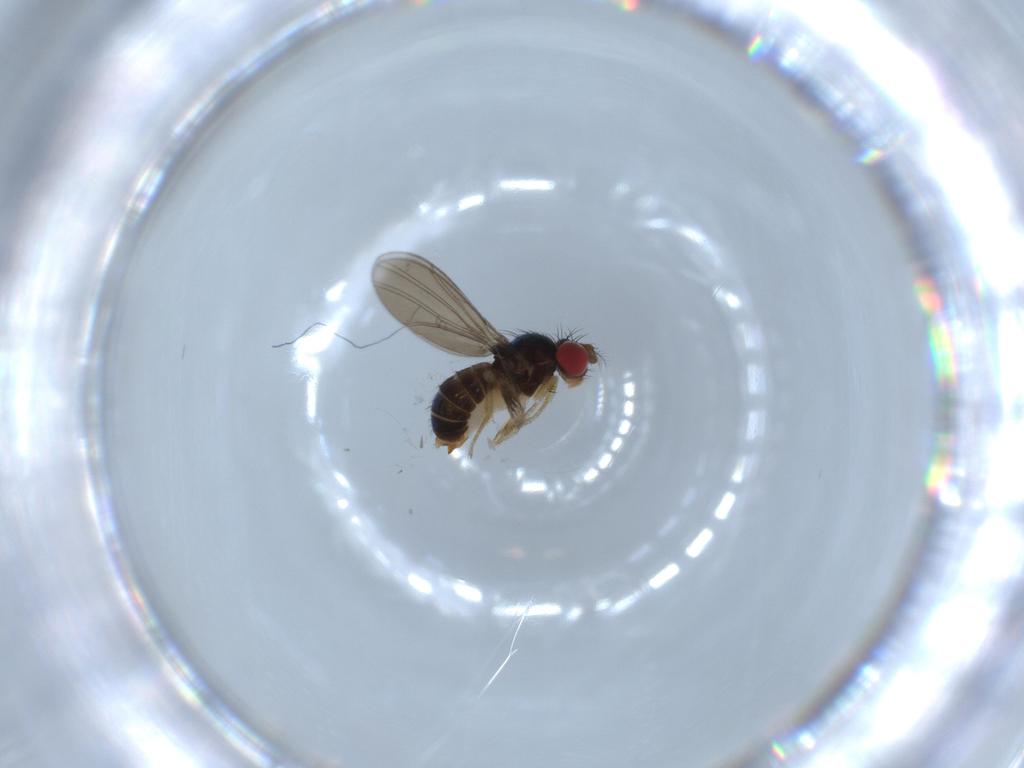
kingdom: Animalia
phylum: Arthropoda
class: Insecta
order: Diptera
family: Drosophilidae
